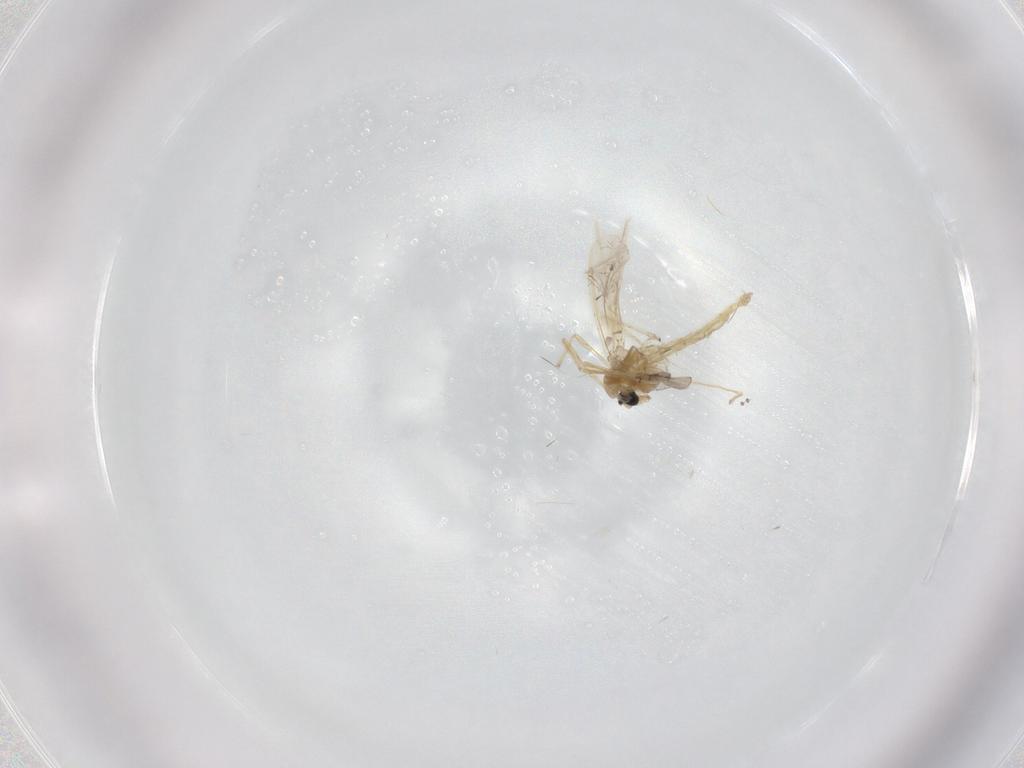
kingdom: Animalia
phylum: Arthropoda
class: Insecta
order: Diptera
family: Chironomidae
